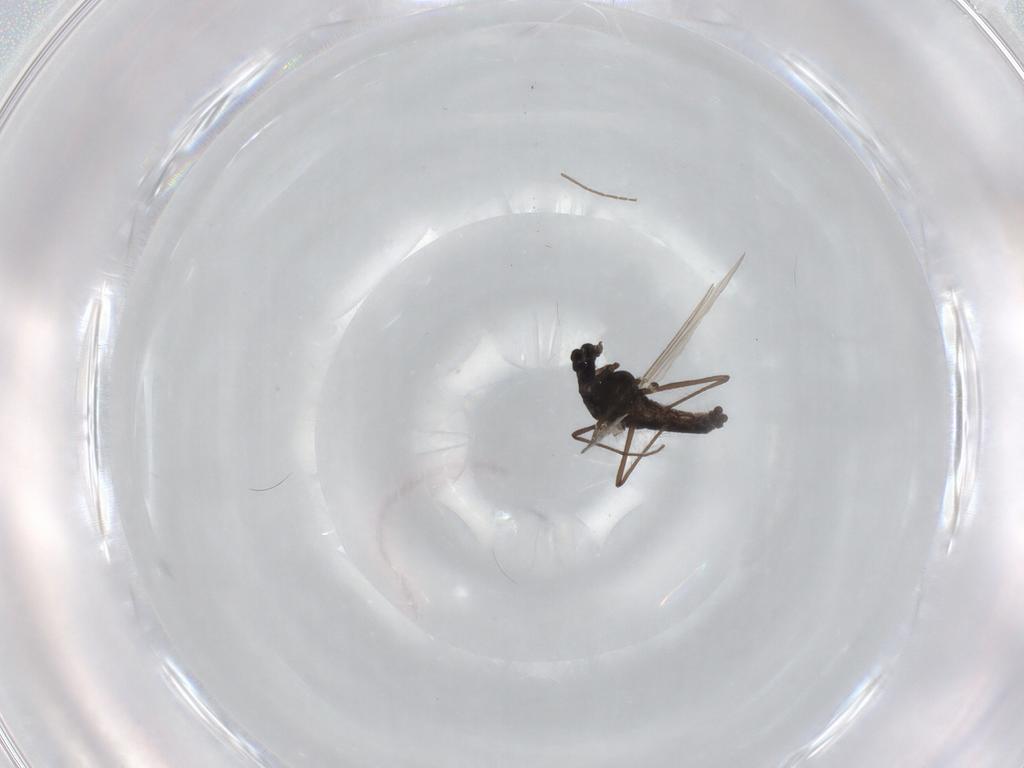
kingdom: Animalia
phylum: Arthropoda
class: Insecta
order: Diptera
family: Chironomidae
